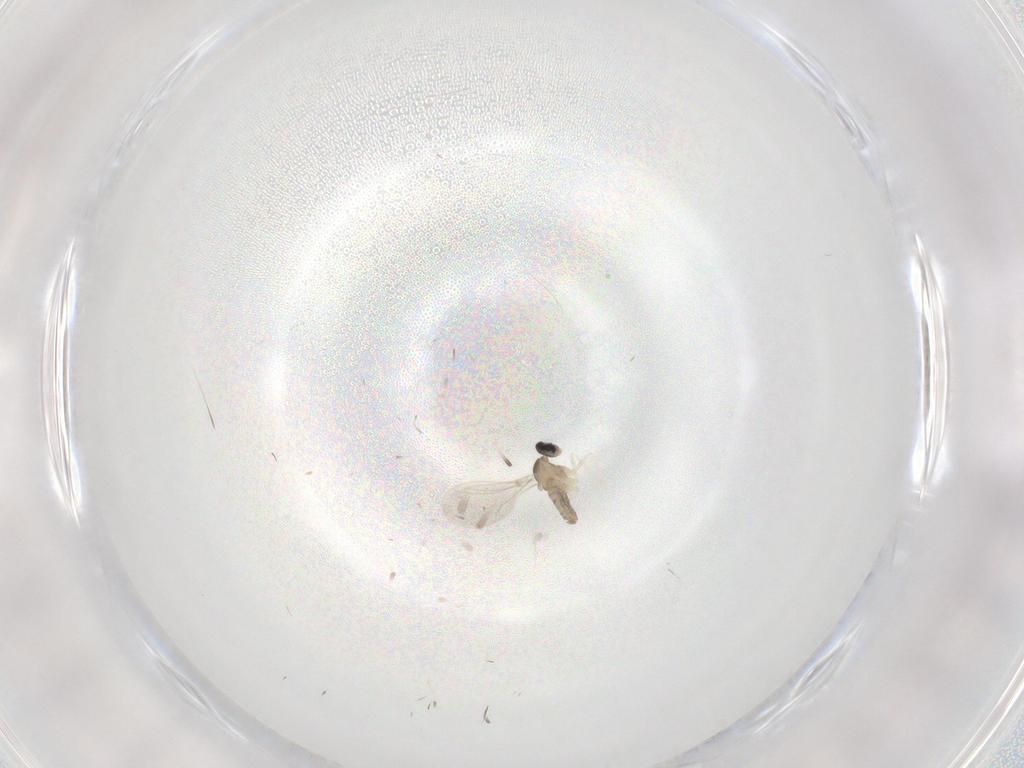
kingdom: Animalia
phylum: Arthropoda
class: Insecta
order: Diptera
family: Cecidomyiidae
